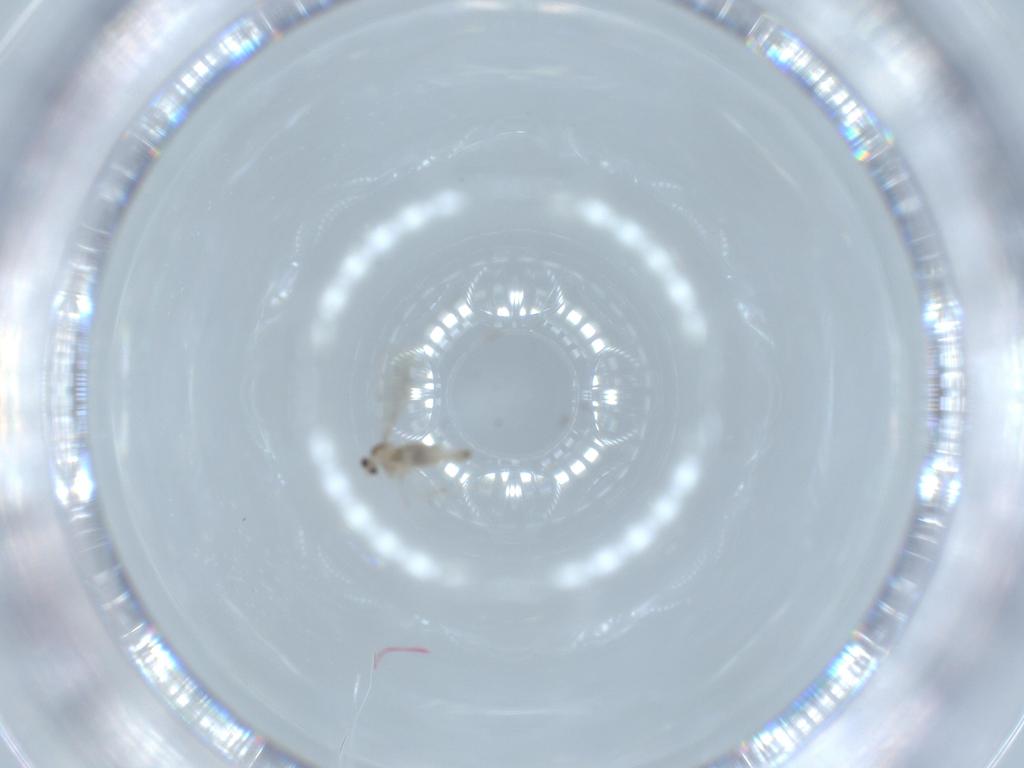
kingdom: Animalia
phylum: Arthropoda
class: Insecta
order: Diptera
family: Cecidomyiidae
